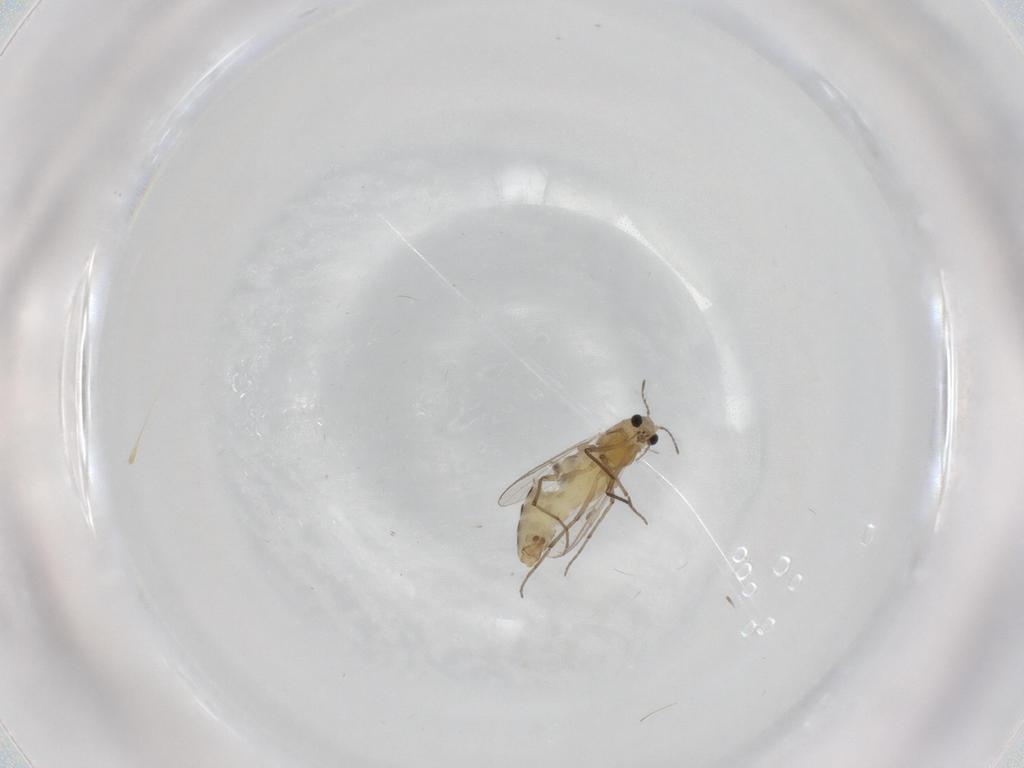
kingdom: Animalia
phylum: Arthropoda
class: Insecta
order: Diptera
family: Chironomidae
